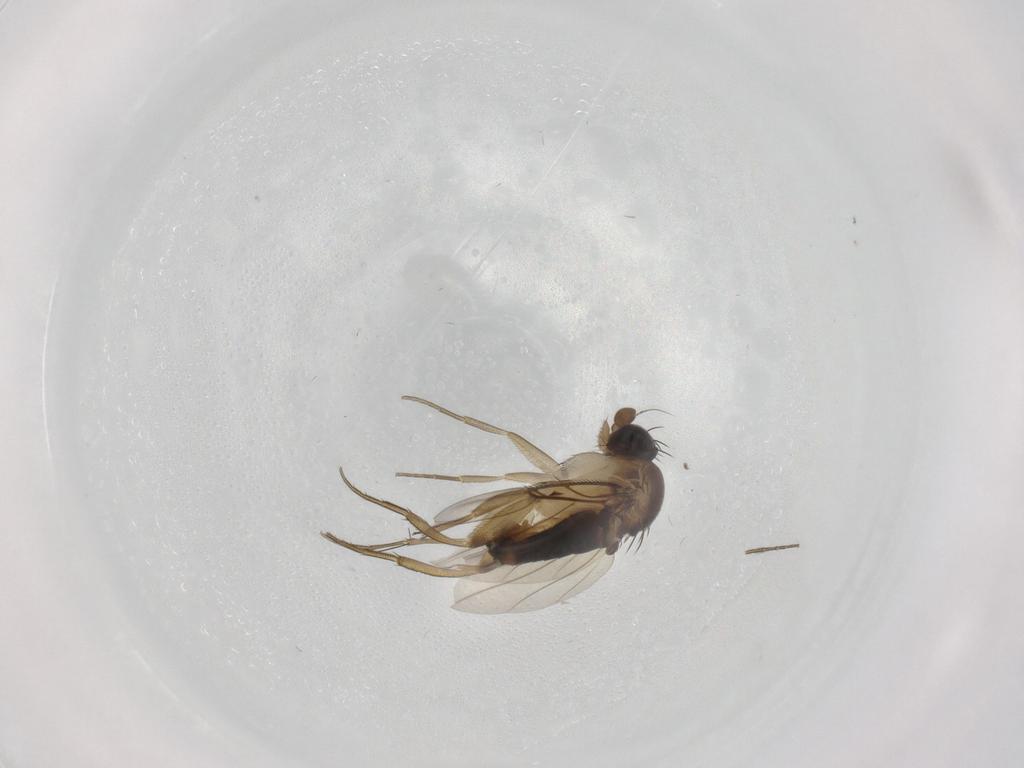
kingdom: Animalia
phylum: Arthropoda
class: Insecta
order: Diptera
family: Phoridae
